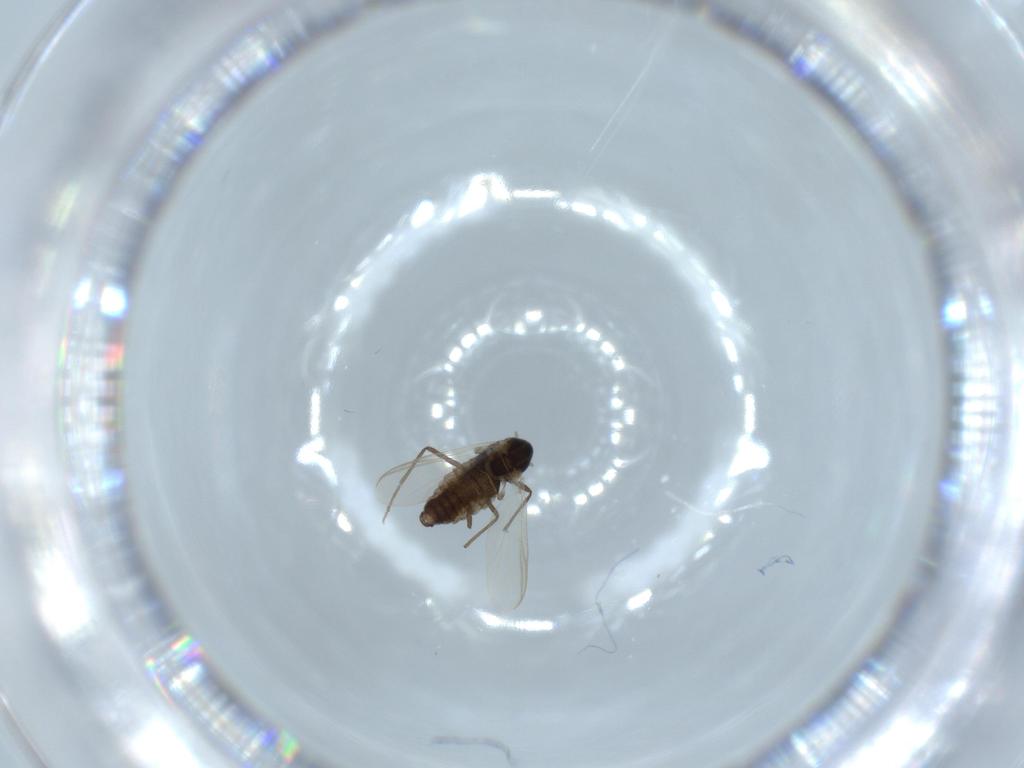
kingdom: Animalia
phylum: Arthropoda
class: Insecta
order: Diptera
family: Chironomidae
